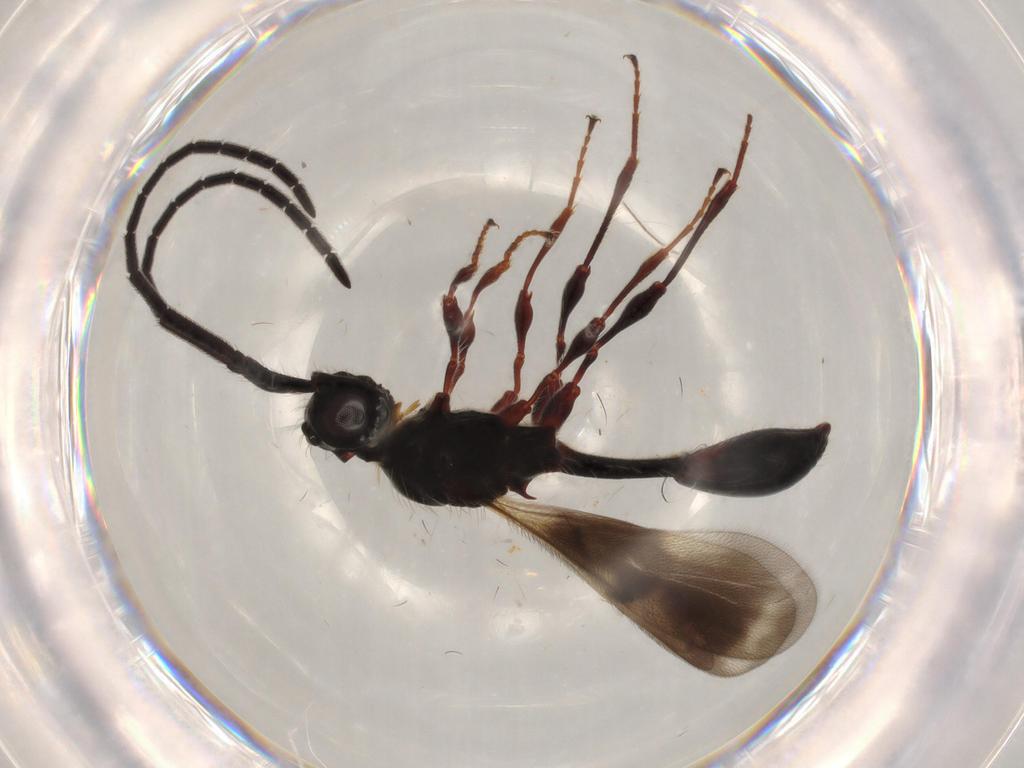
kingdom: Animalia
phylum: Arthropoda
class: Insecta
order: Hymenoptera
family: Diapriidae
